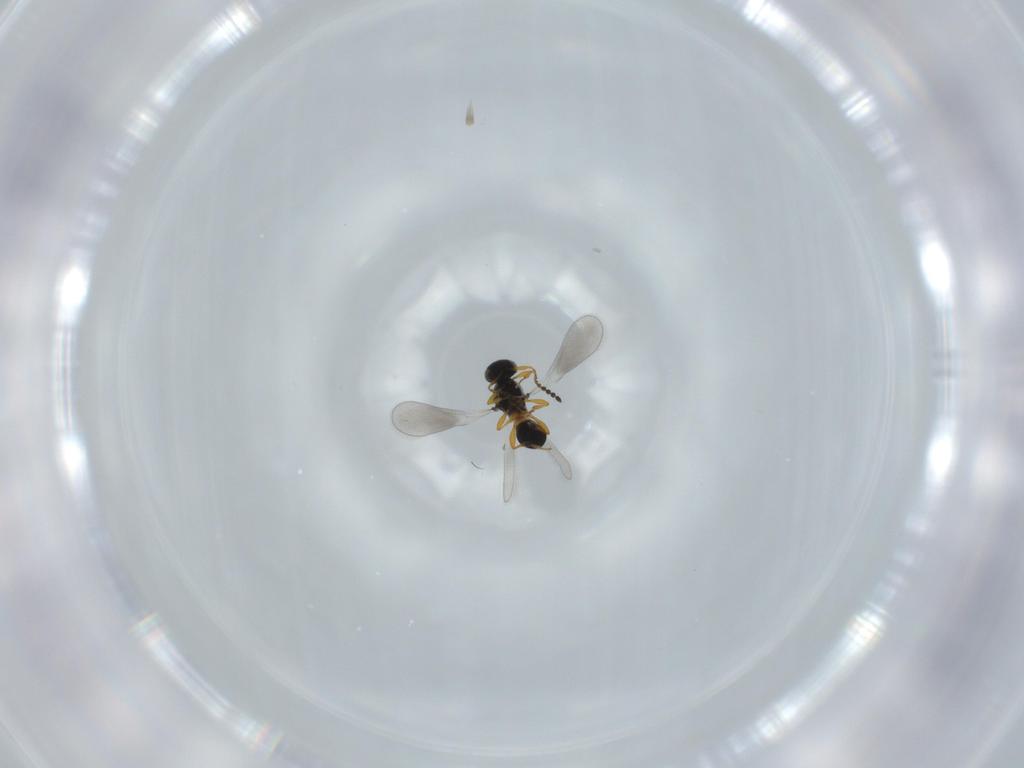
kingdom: Animalia
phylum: Arthropoda
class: Insecta
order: Hymenoptera
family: Platygastridae
